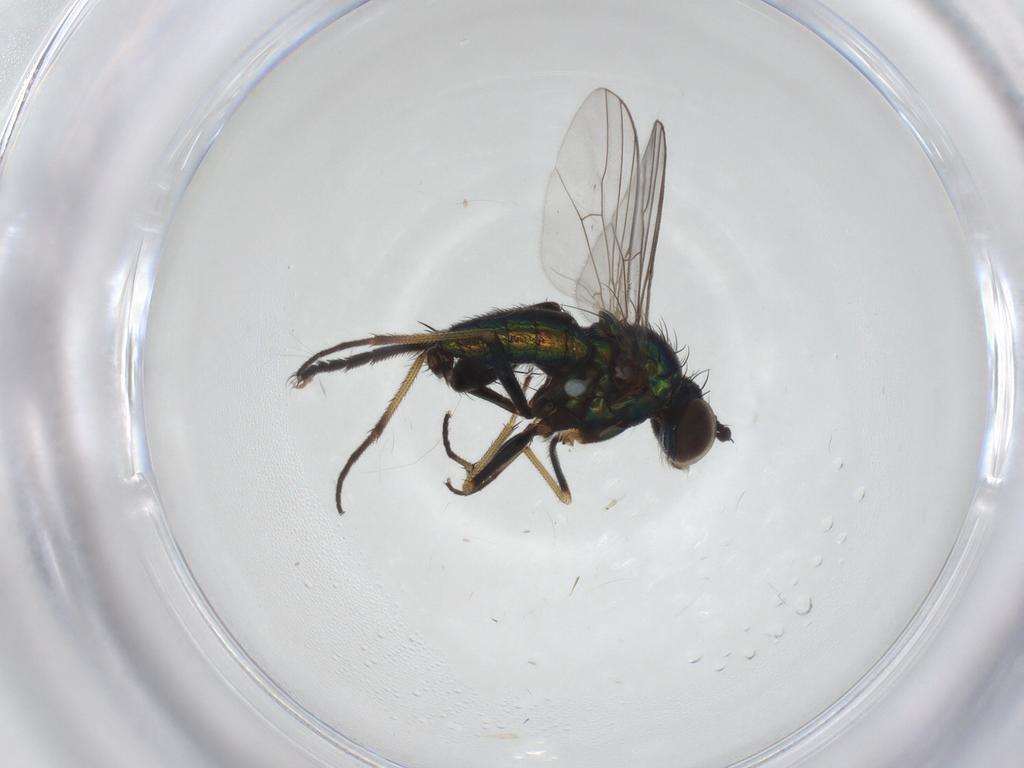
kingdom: Animalia
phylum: Arthropoda
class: Insecta
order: Diptera
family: Dolichopodidae
